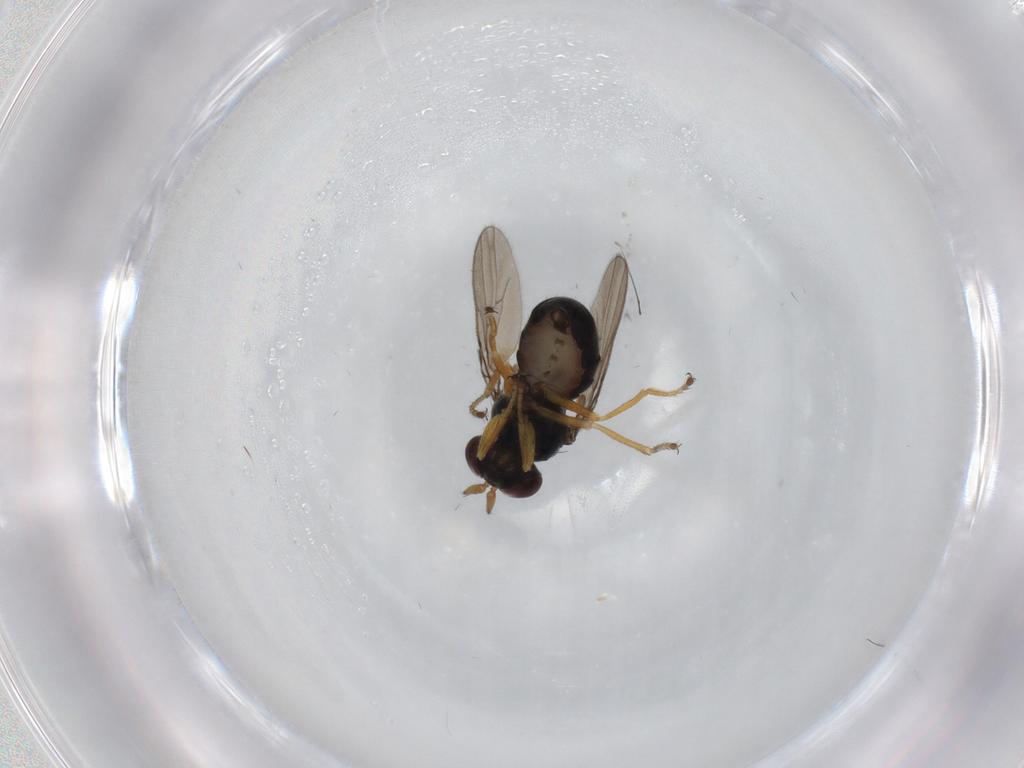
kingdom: Animalia
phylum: Arthropoda
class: Insecta
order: Diptera
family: Ephydridae
